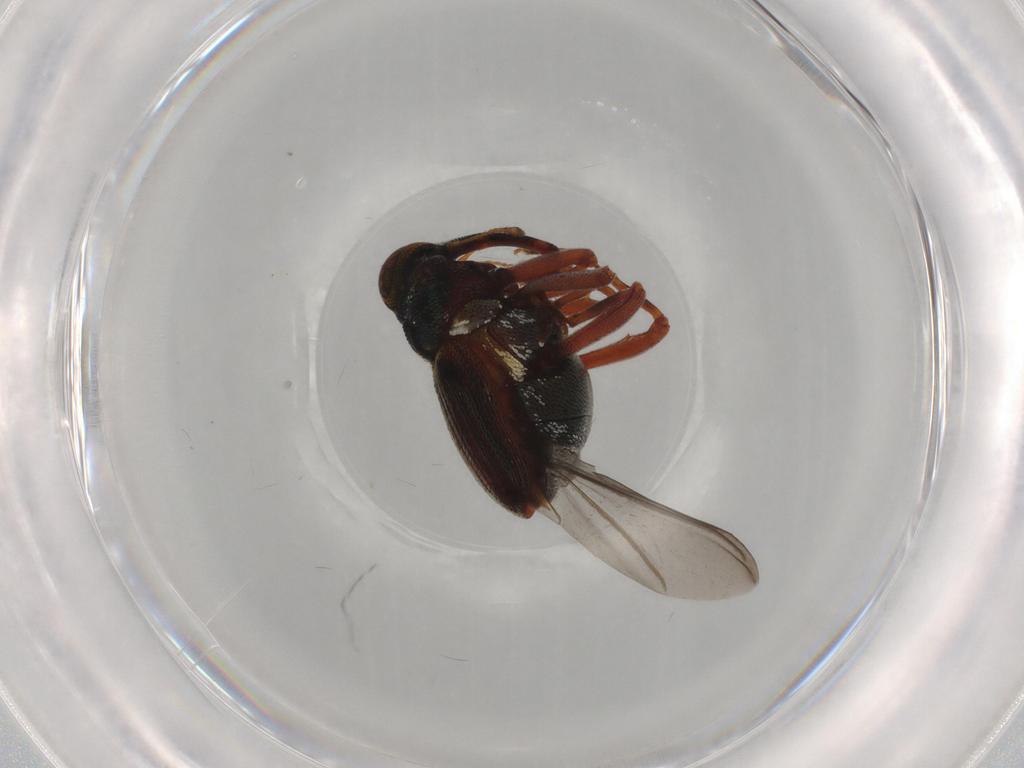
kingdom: Animalia
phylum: Arthropoda
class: Insecta
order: Coleoptera
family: Curculionidae
